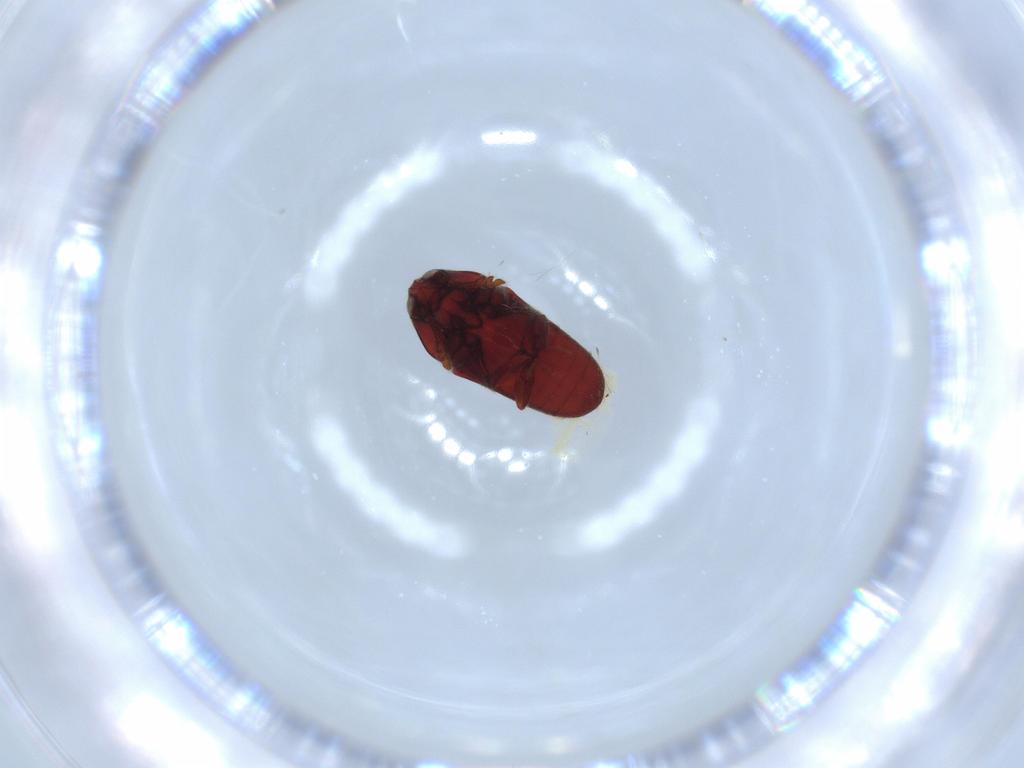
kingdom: Animalia
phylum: Arthropoda
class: Insecta
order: Coleoptera
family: Throscidae
